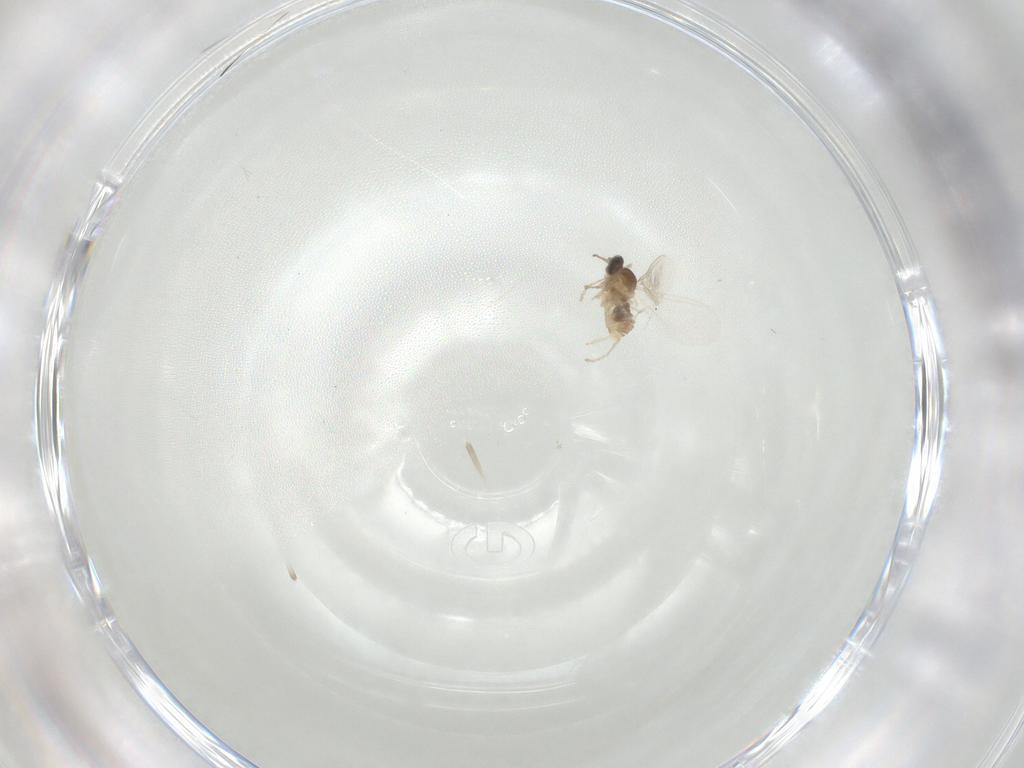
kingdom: Animalia
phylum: Arthropoda
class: Insecta
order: Diptera
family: Cecidomyiidae
